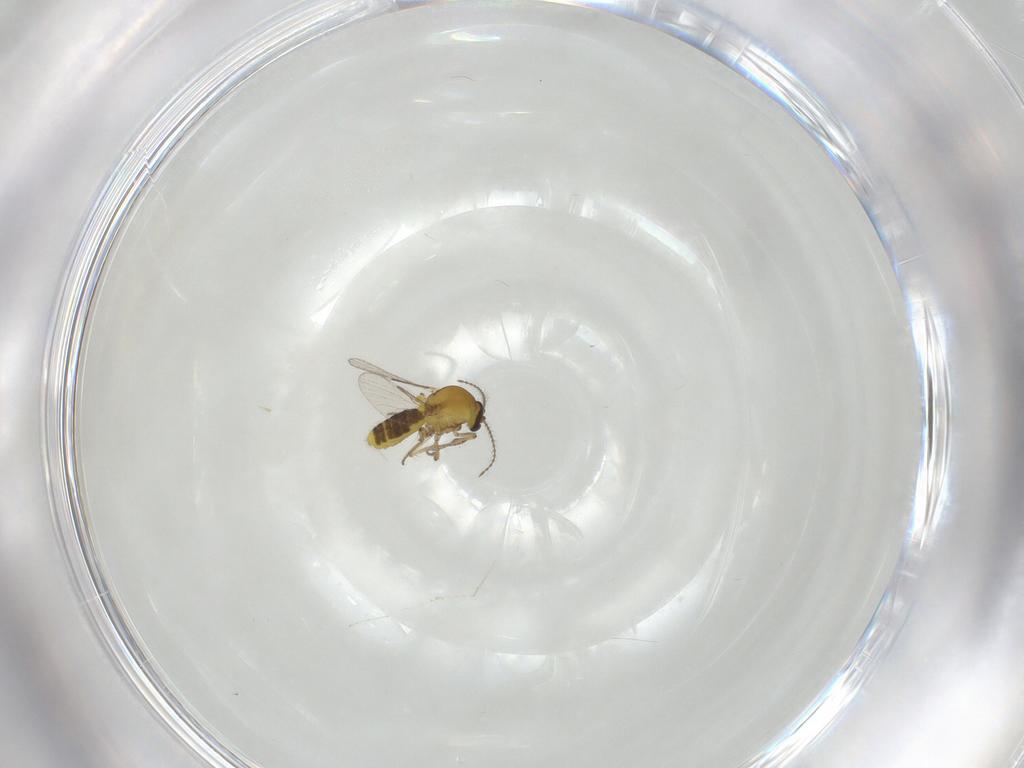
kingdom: Animalia
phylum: Arthropoda
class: Insecta
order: Diptera
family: Cecidomyiidae
